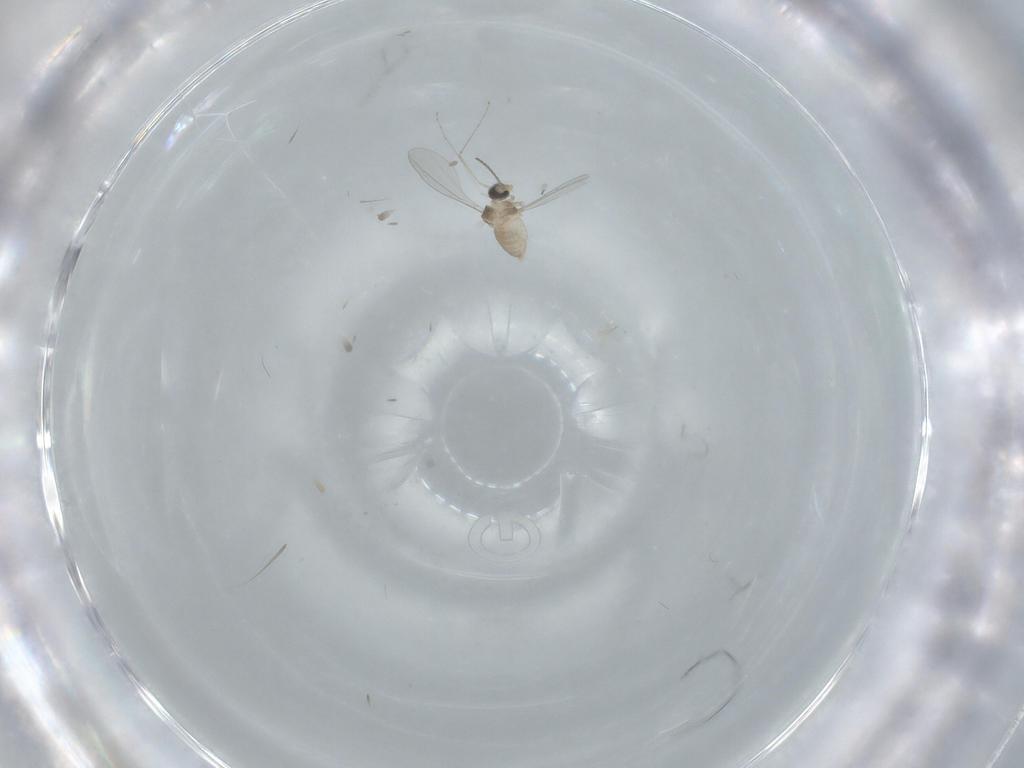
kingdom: Animalia
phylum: Arthropoda
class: Insecta
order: Diptera
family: Cecidomyiidae
